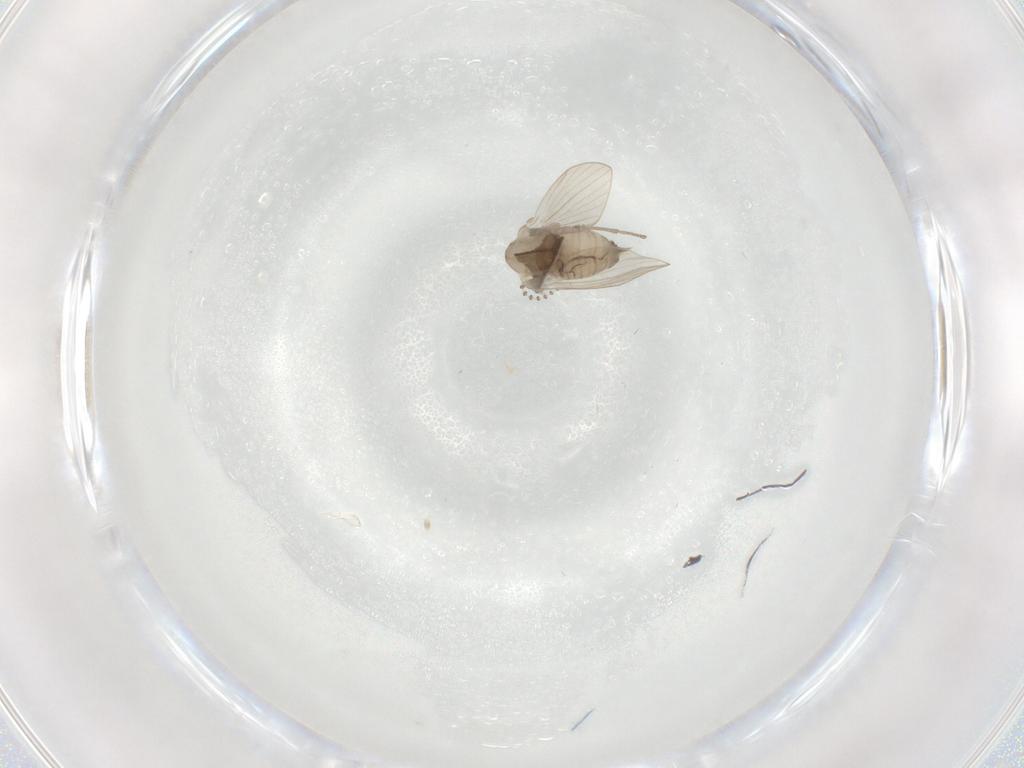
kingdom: Animalia
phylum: Arthropoda
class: Insecta
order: Diptera
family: Psychodidae
